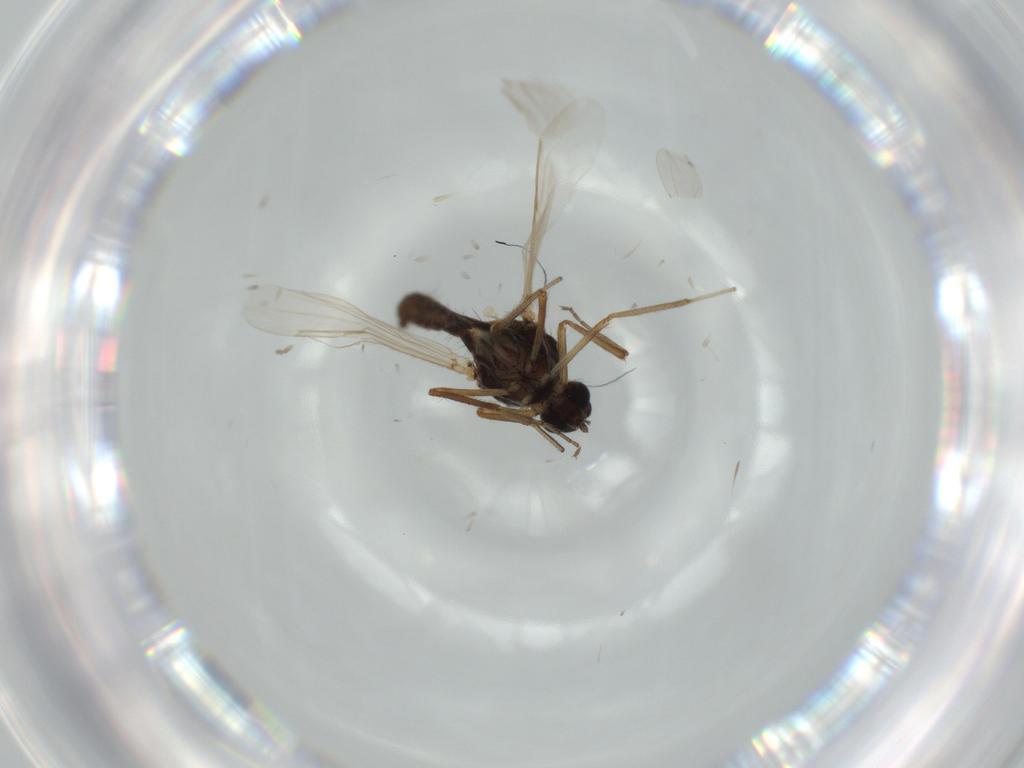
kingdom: Animalia
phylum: Arthropoda
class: Insecta
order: Diptera
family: Ceratopogonidae
